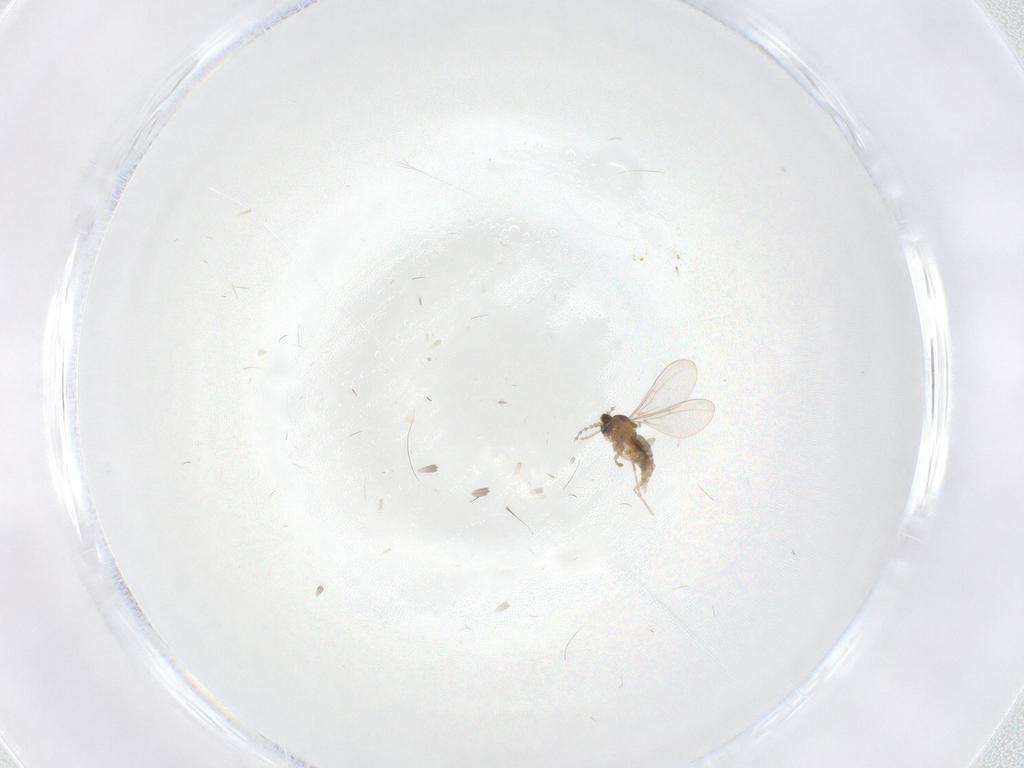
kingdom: Animalia
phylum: Arthropoda
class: Insecta
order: Diptera
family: Cecidomyiidae
